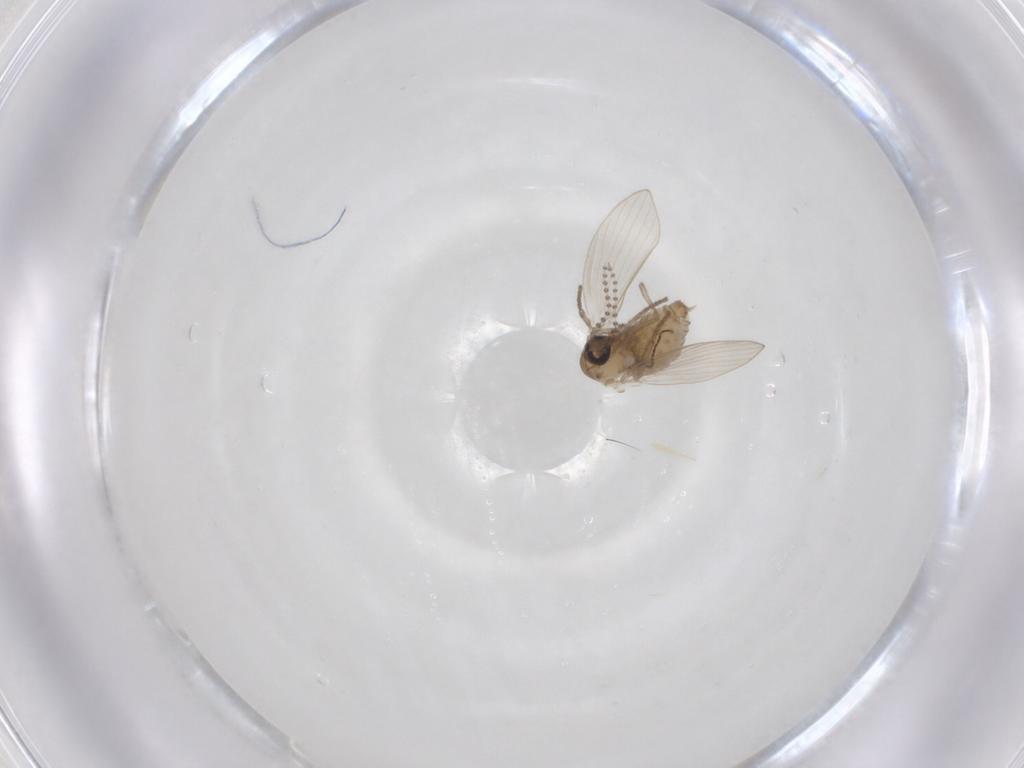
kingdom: Animalia
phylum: Arthropoda
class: Insecta
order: Diptera
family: Psychodidae
